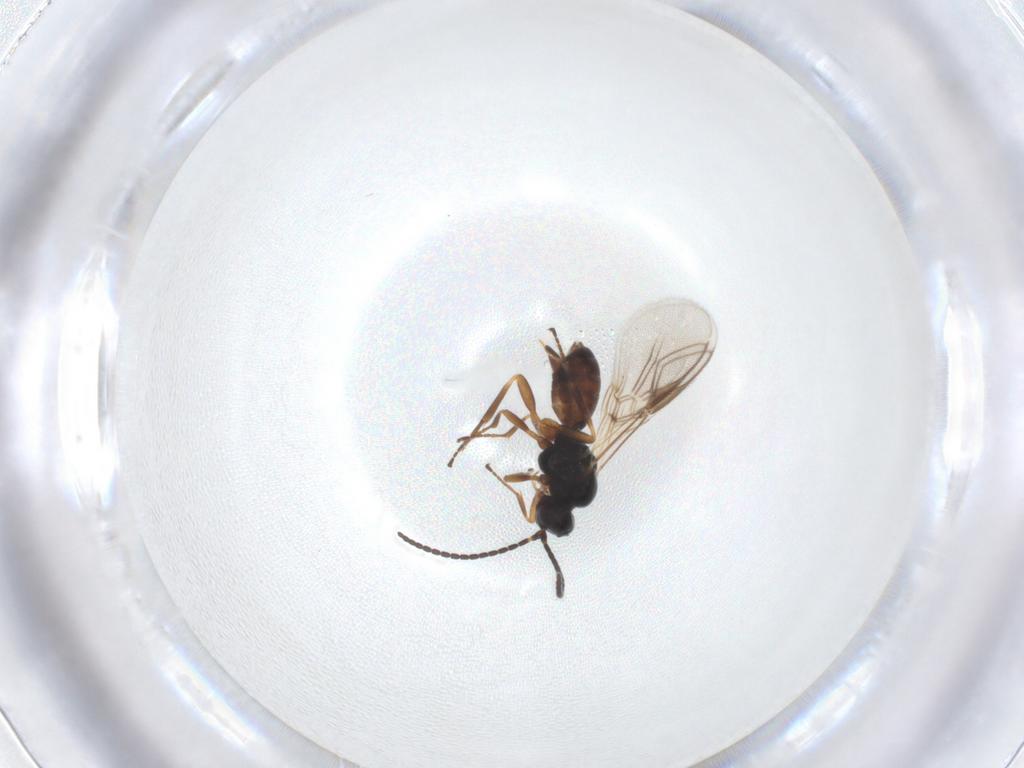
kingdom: Animalia
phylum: Arthropoda
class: Insecta
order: Hymenoptera
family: Braconidae
